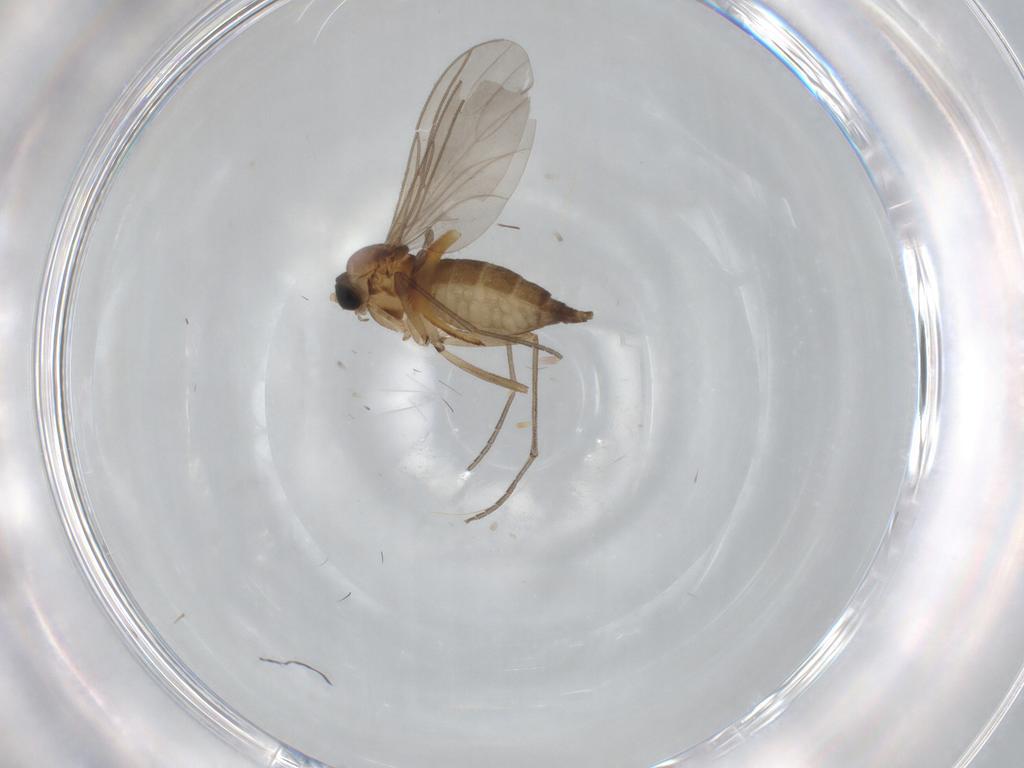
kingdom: Animalia
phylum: Arthropoda
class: Insecta
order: Diptera
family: Sciaridae
